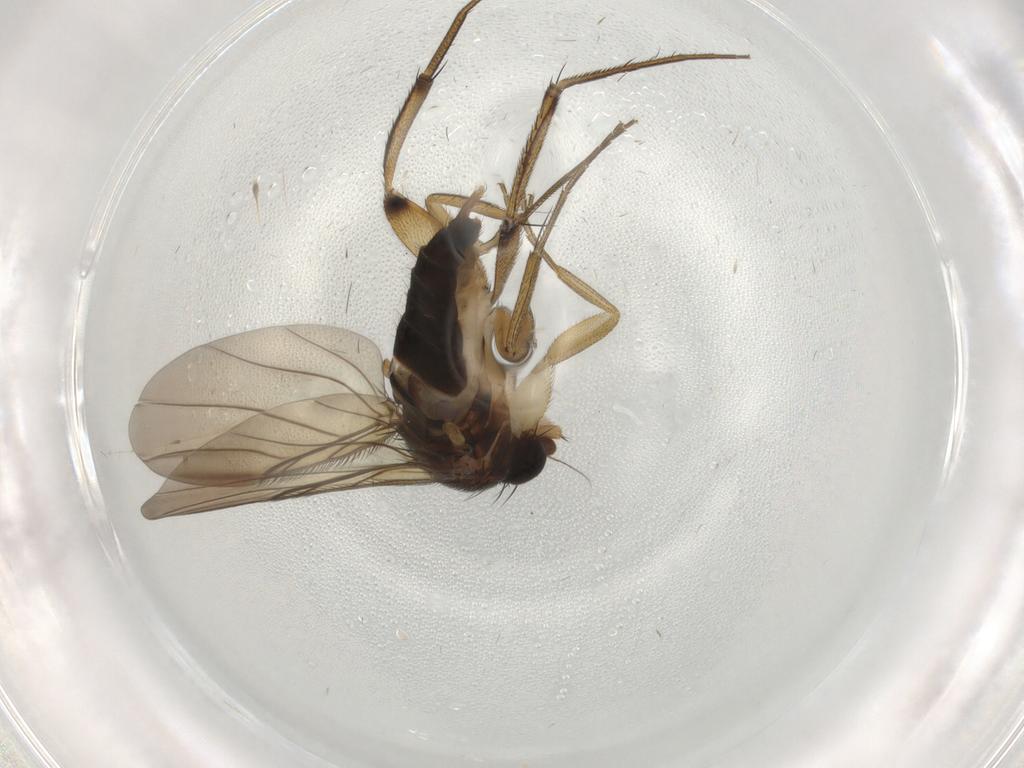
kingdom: Animalia
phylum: Arthropoda
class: Insecta
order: Diptera
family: Phoridae
